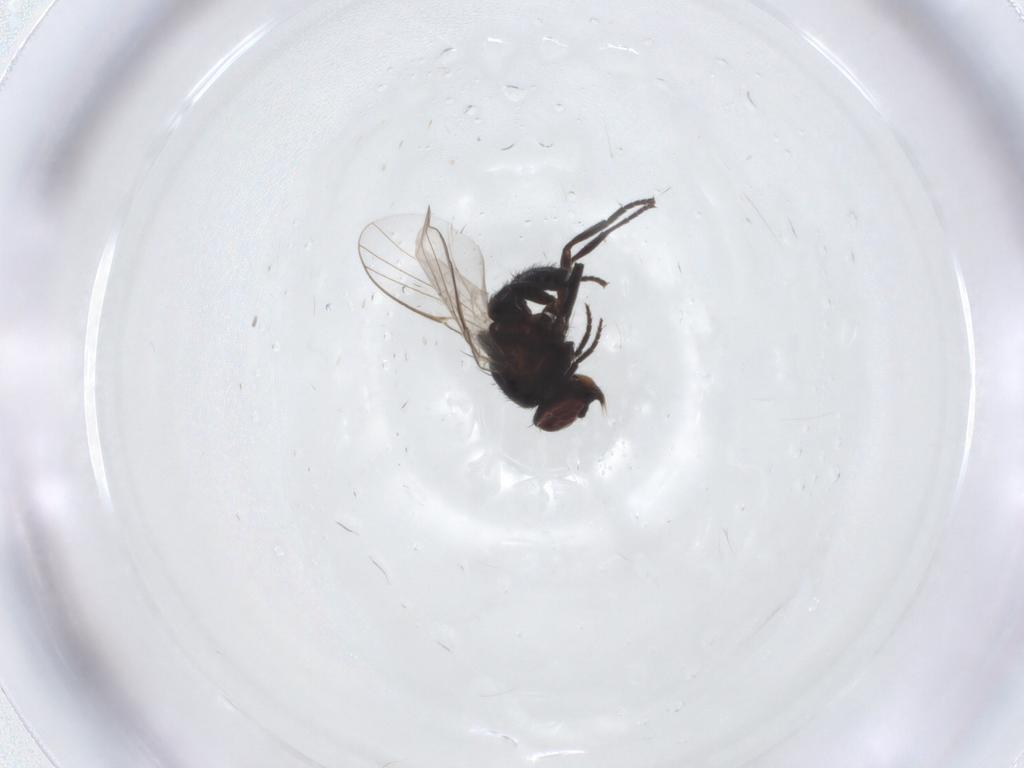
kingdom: Animalia
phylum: Arthropoda
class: Insecta
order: Diptera
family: Agromyzidae
